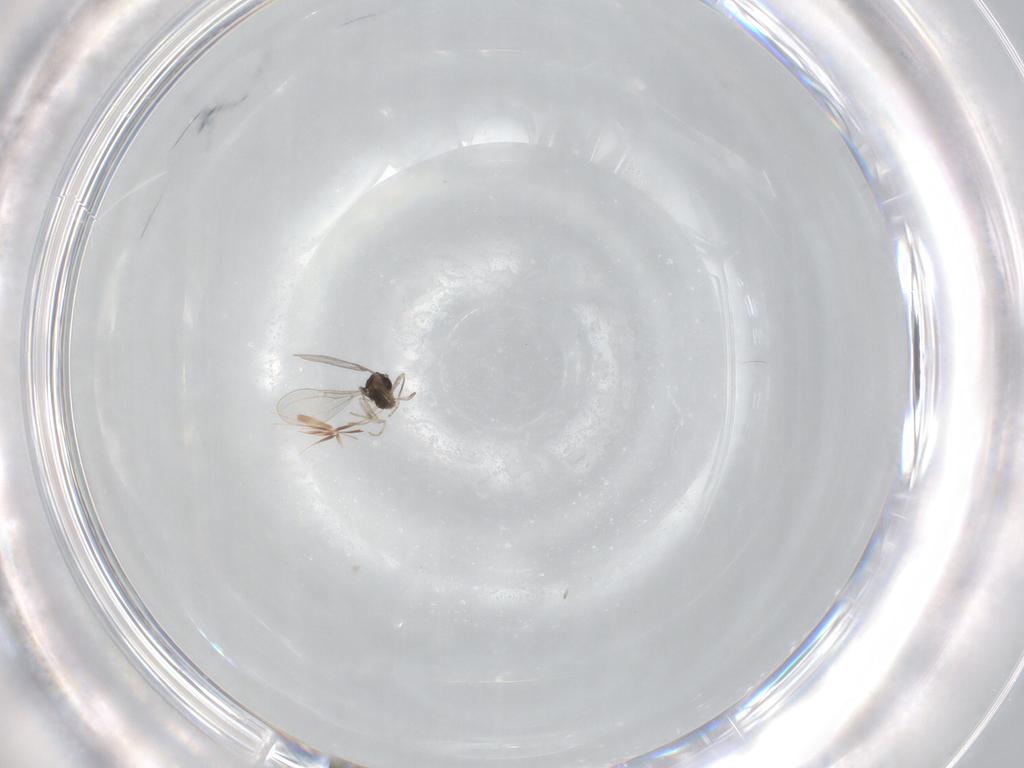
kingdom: Animalia
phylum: Arthropoda
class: Insecta
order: Diptera
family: Cecidomyiidae
